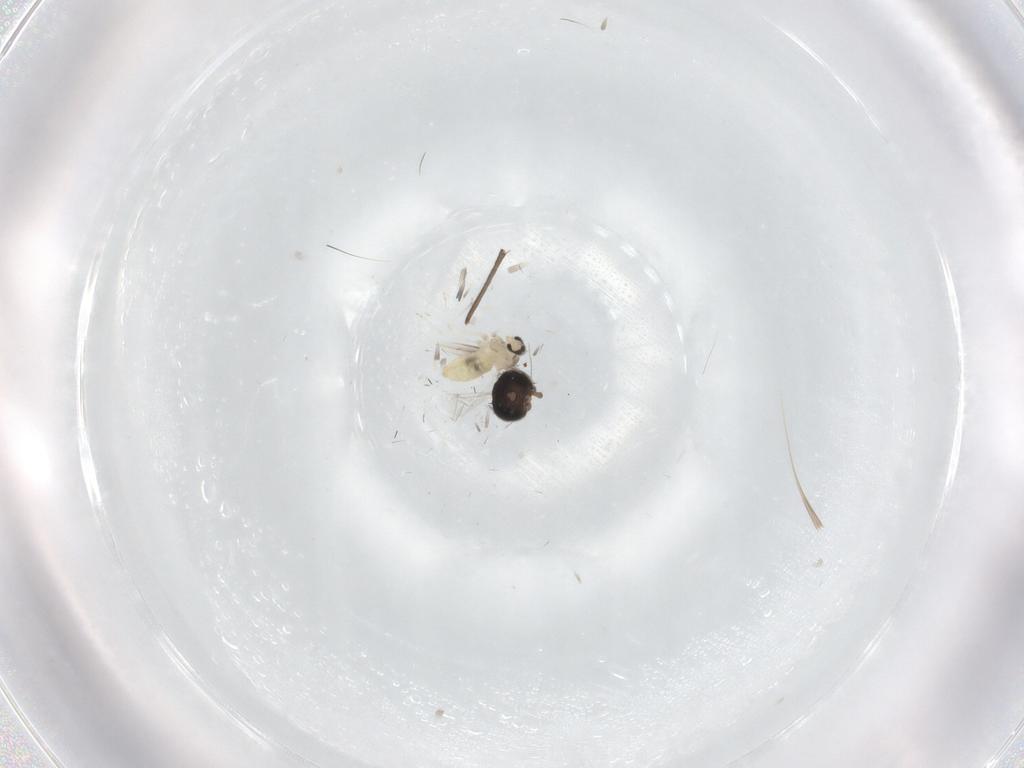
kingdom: Animalia
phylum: Arthropoda
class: Insecta
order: Diptera
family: Cecidomyiidae
